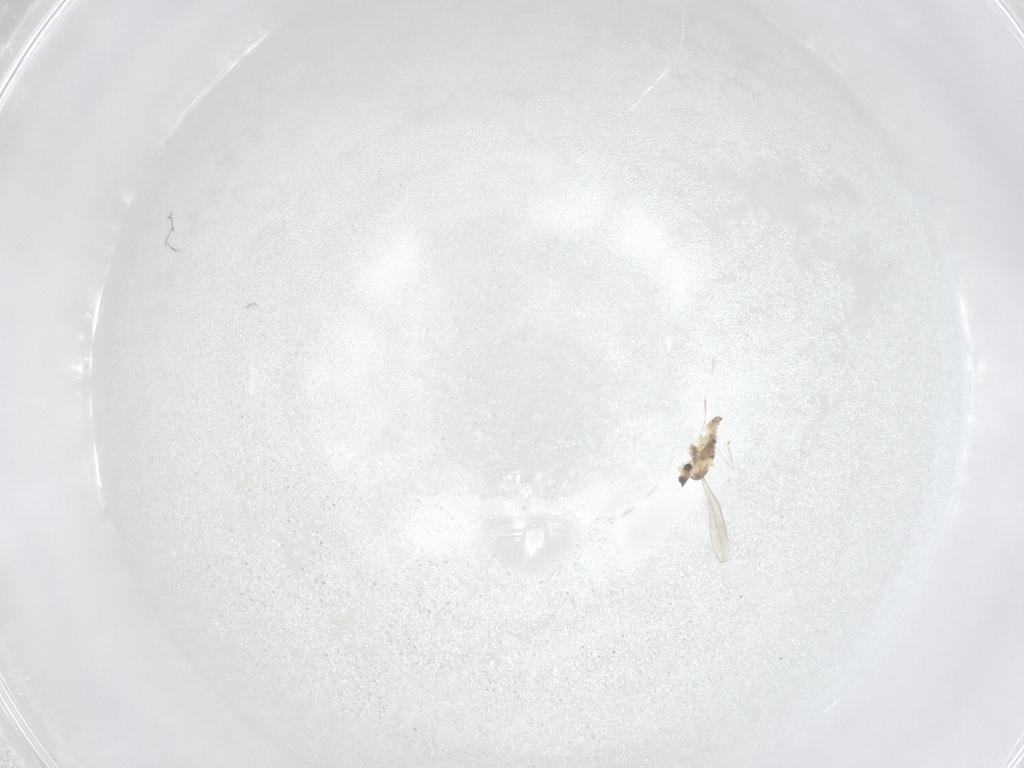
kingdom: Animalia
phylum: Arthropoda
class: Insecta
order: Diptera
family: Cecidomyiidae
